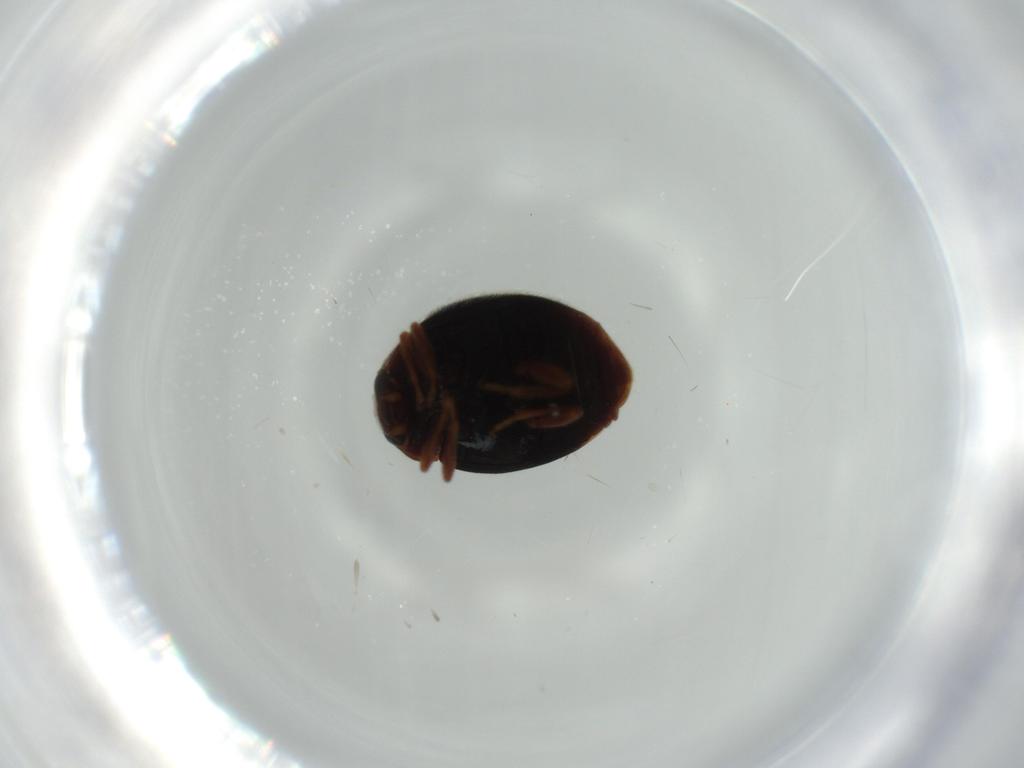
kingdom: Animalia
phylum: Arthropoda
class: Insecta
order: Coleoptera
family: Coccinellidae
